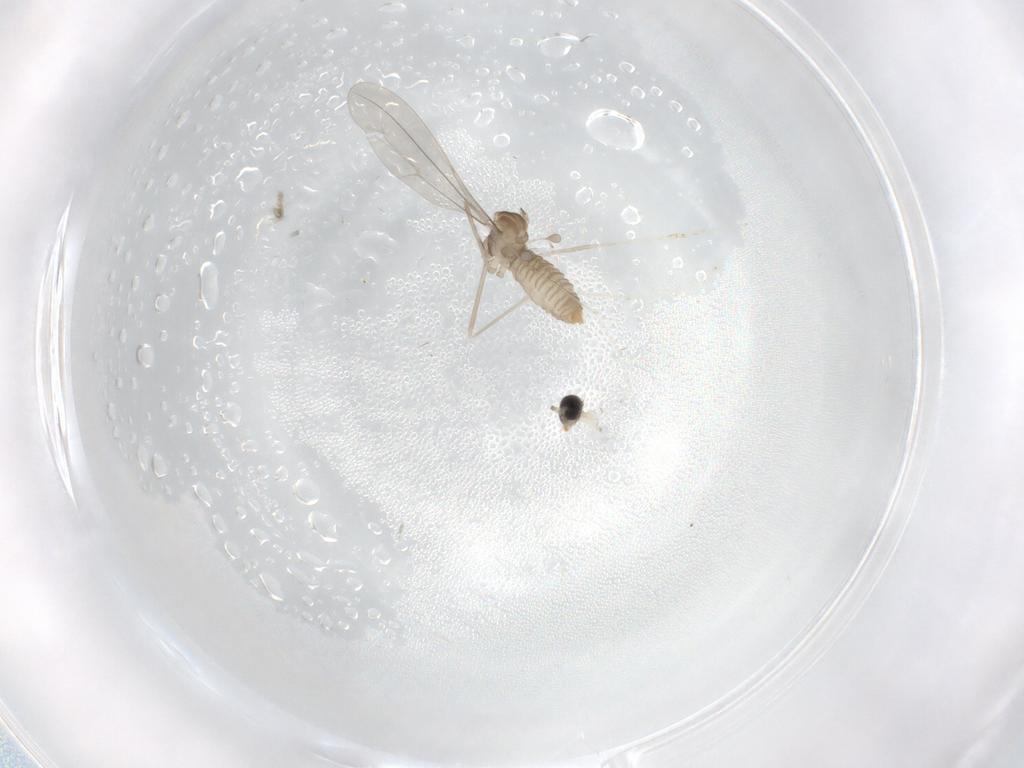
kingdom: Animalia
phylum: Arthropoda
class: Insecta
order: Diptera
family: Cecidomyiidae
